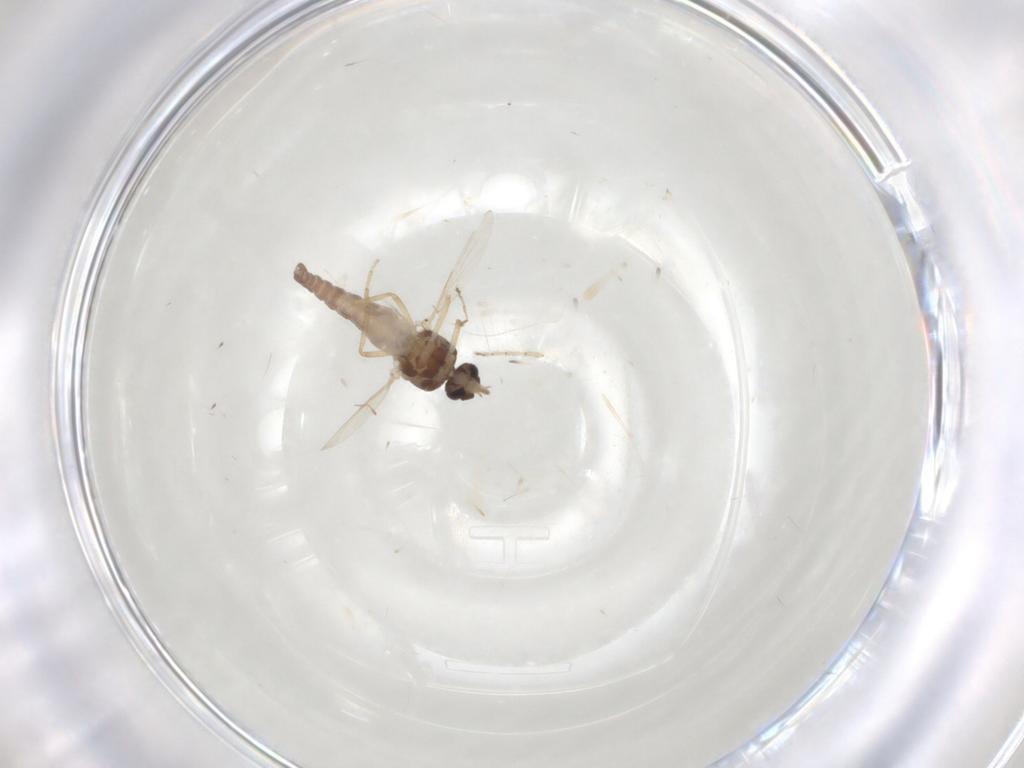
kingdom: Animalia
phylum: Arthropoda
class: Insecta
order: Diptera
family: Ceratopogonidae
